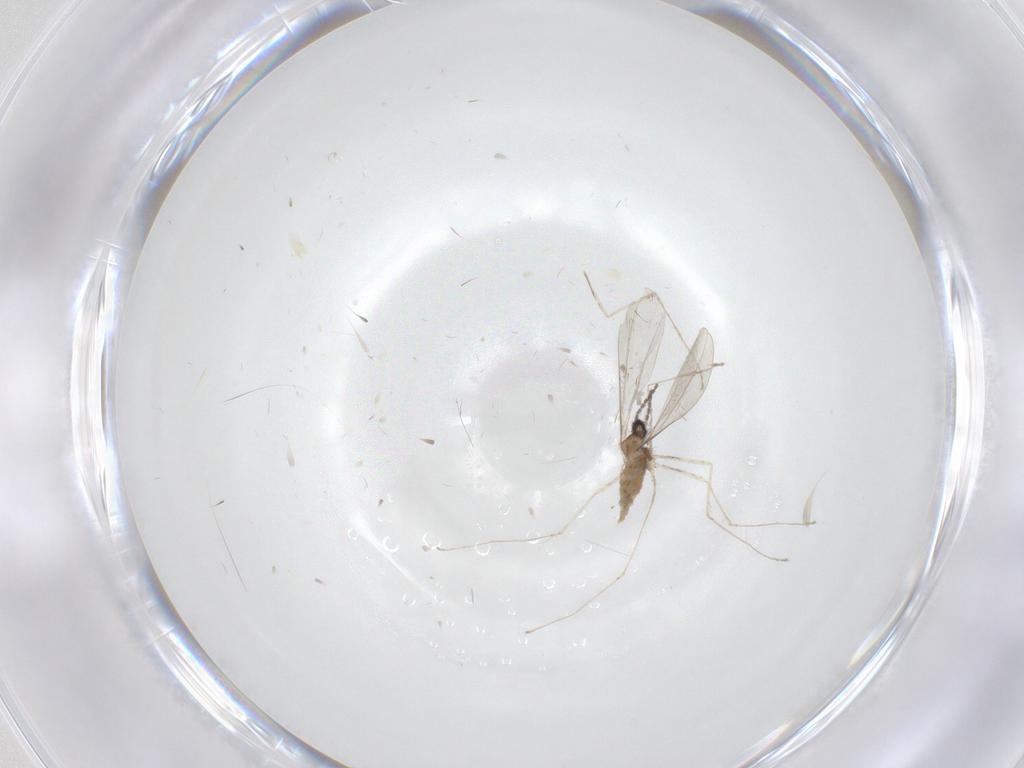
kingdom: Animalia
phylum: Arthropoda
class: Insecta
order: Diptera
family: Cecidomyiidae
